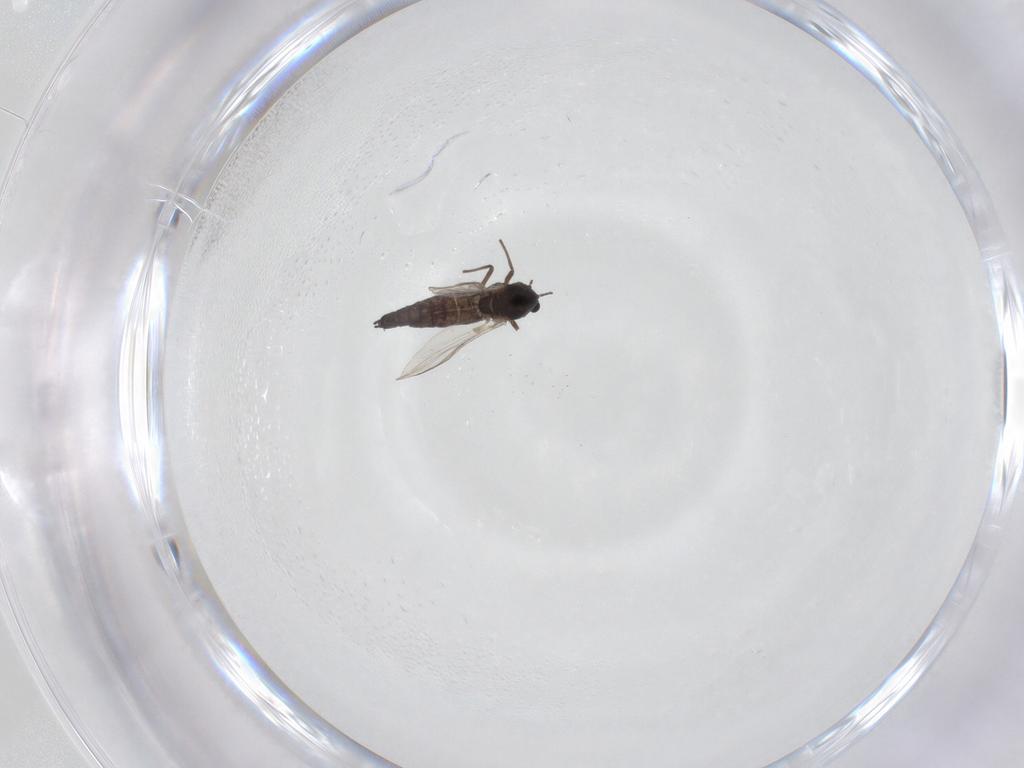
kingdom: Animalia
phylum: Arthropoda
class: Insecta
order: Diptera
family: Chironomidae
